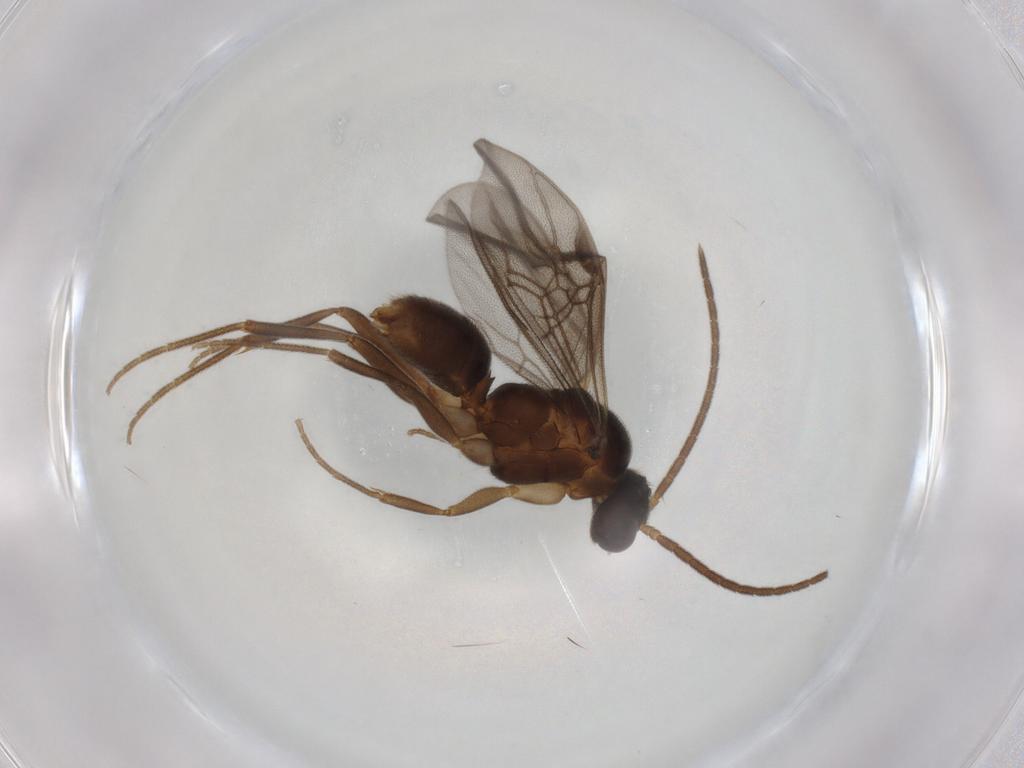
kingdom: Animalia
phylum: Arthropoda
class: Insecta
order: Hymenoptera
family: Formicidae
